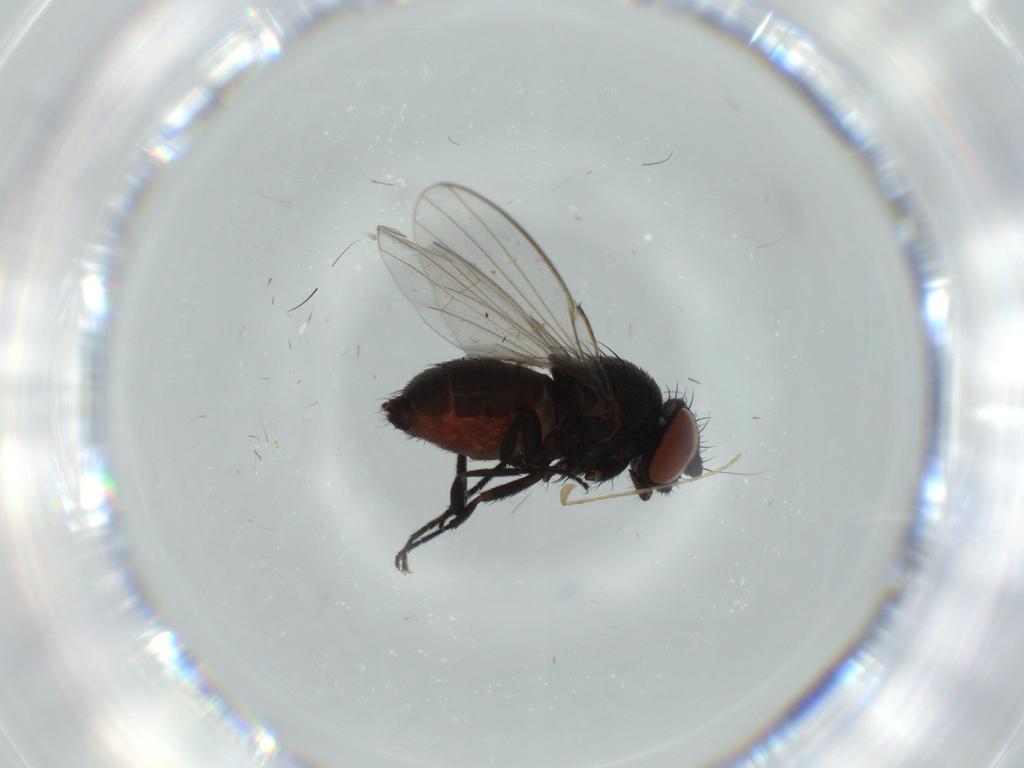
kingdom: Animalia
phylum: Arthropoda
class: Insecta
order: Diptera
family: Milichiidae
